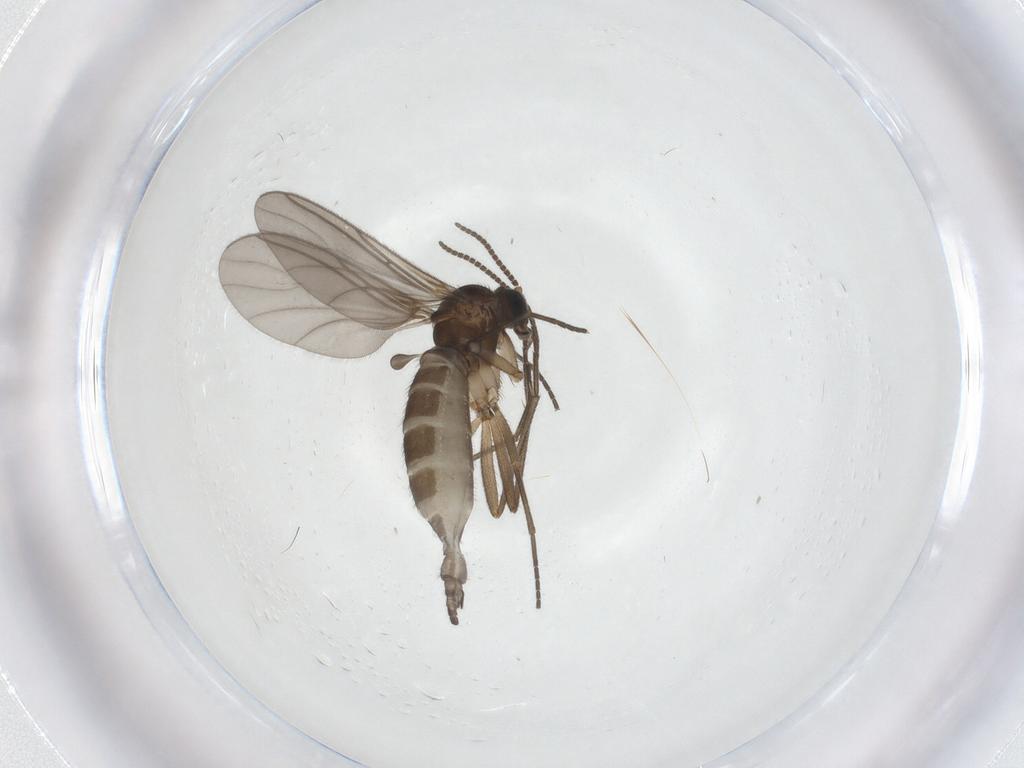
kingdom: Animalia
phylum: Arthropoda
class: Insecta
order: Diptera
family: Sciaridae
